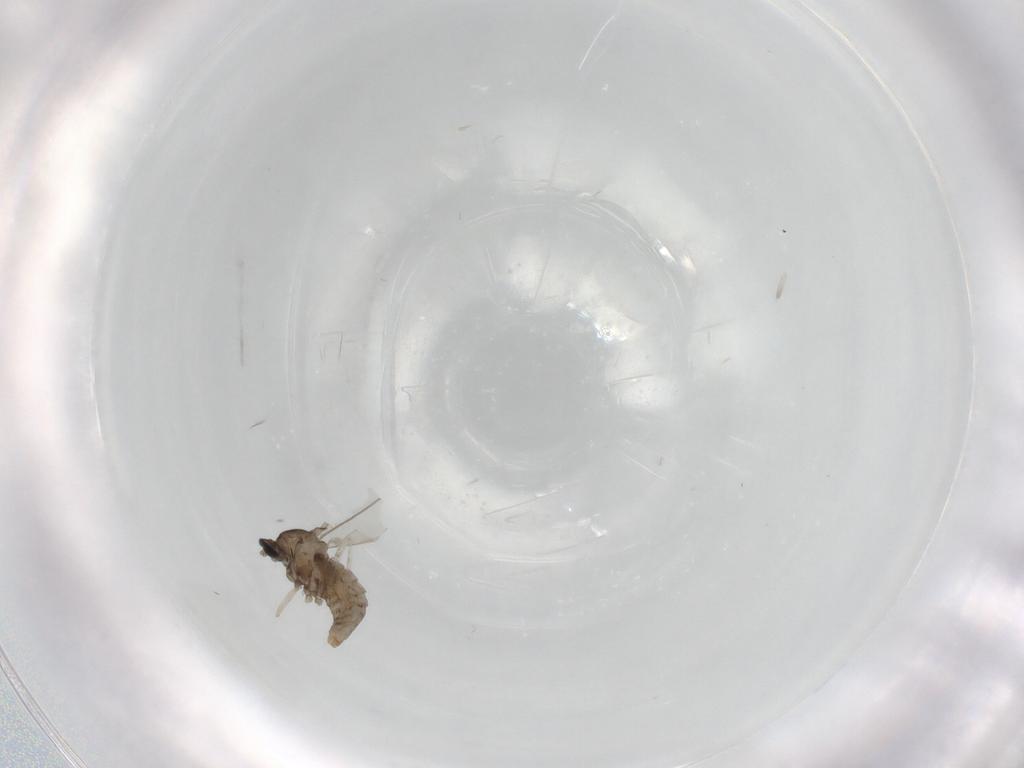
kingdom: Animalia
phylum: Arthropoda
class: Insecta
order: Diptera
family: Cecidomyiidae
